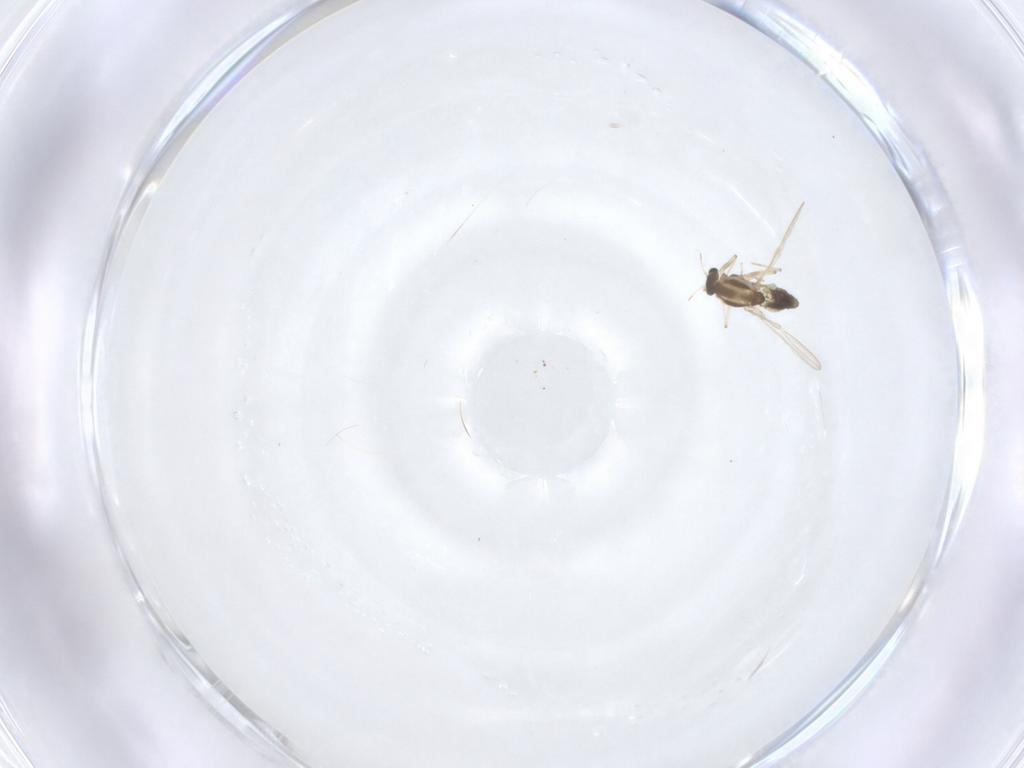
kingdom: Animalia
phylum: Arthropoda
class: Insecta
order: Diptera
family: Chironomidae
